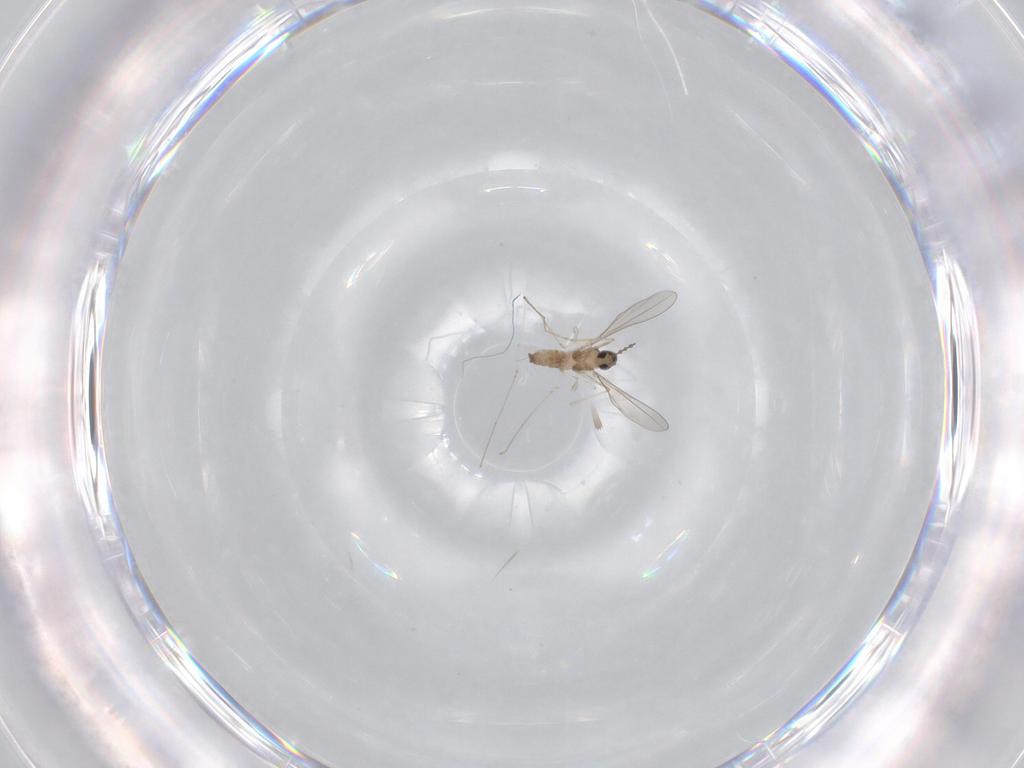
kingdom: Animalia
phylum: Arthropoda
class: Insecta
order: Diptera
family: Cecidomyiidae
